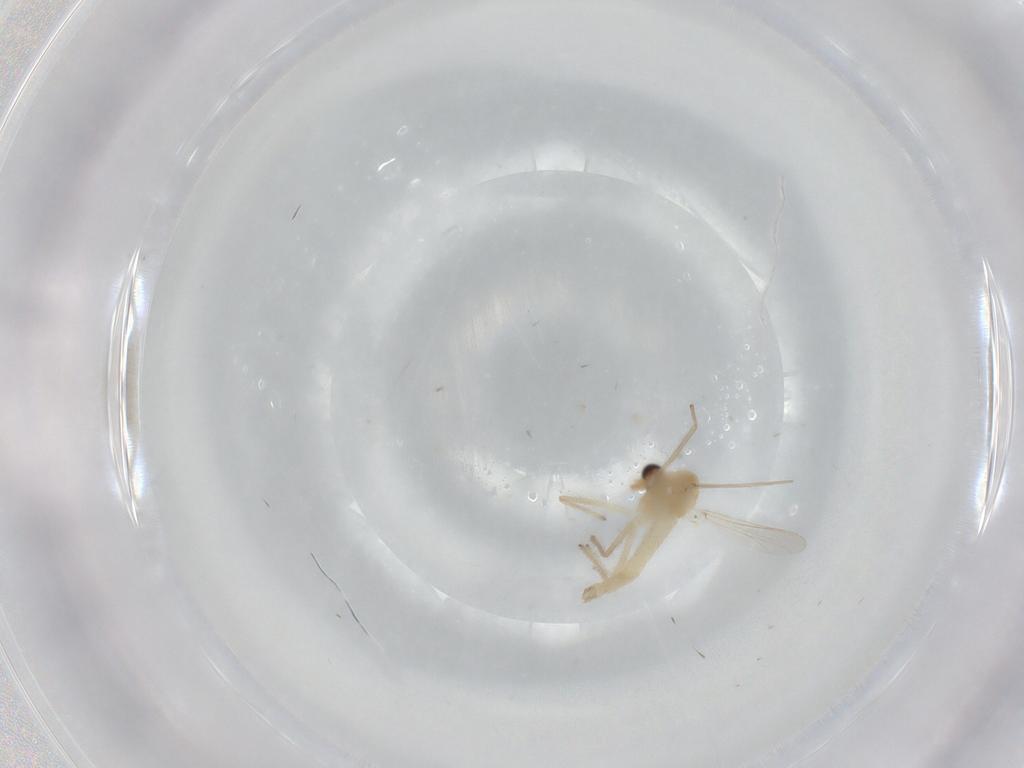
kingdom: Animalia
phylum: Arthropoda
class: Insecta
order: Diptera
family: Chironomidae
